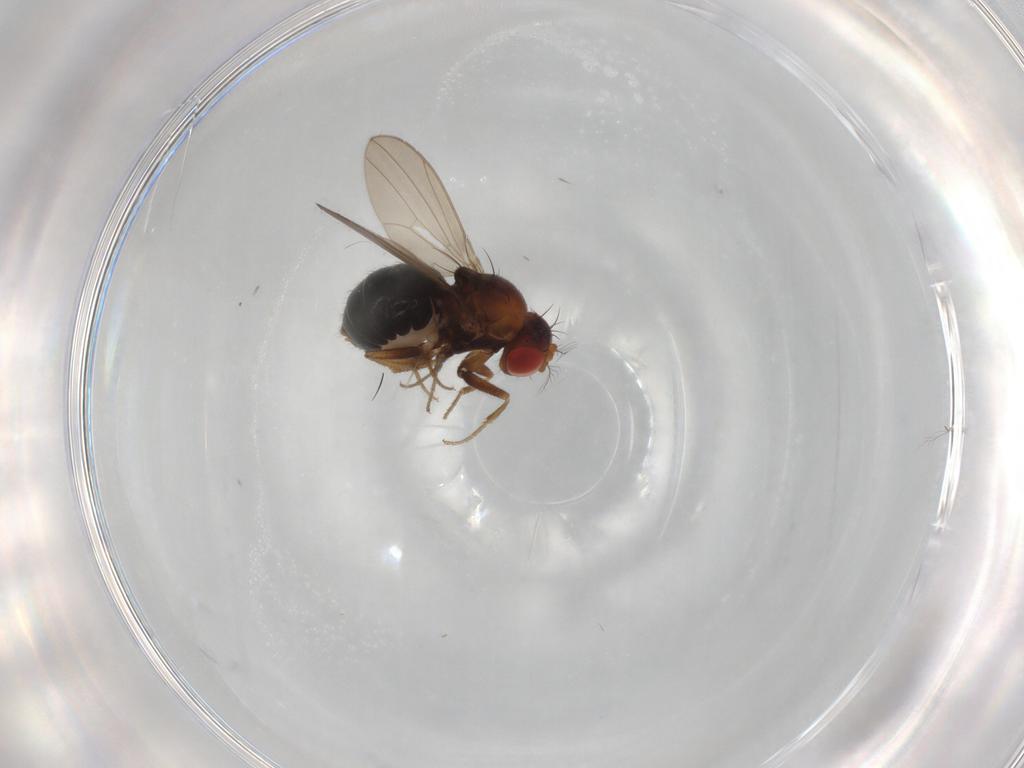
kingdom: Animalia
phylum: Arthropoda
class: Insecta
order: Diptera
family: Drosophilidae
